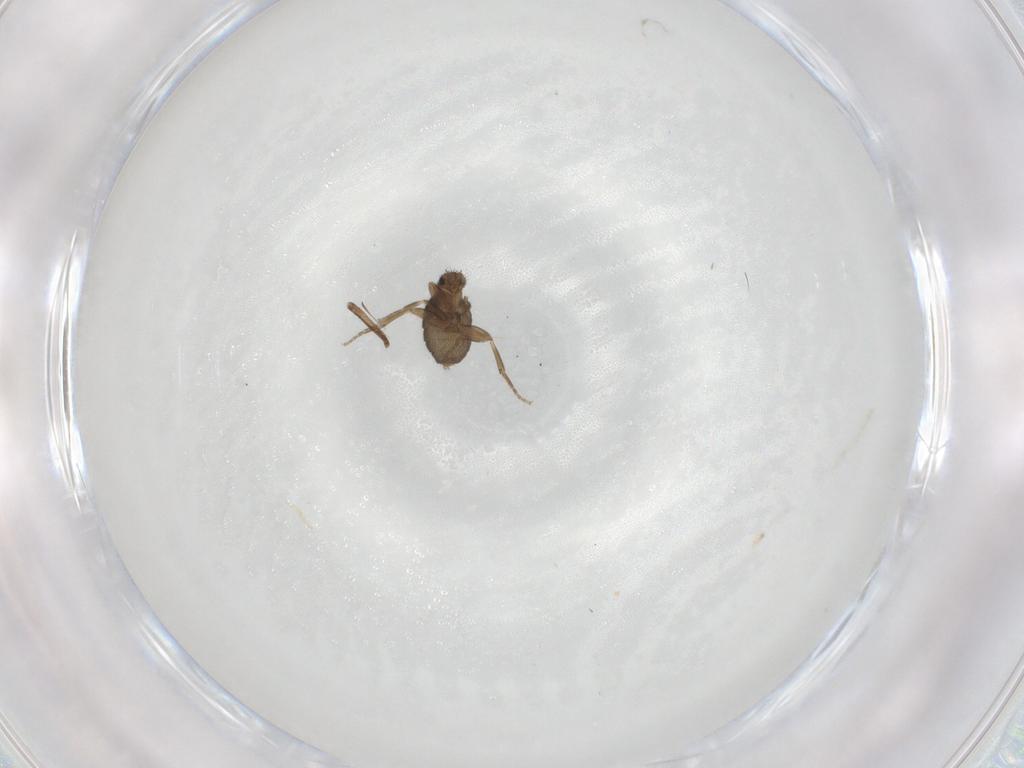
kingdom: Animalia
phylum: Arthropoda
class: Insecta
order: Diptera
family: Phoridae
